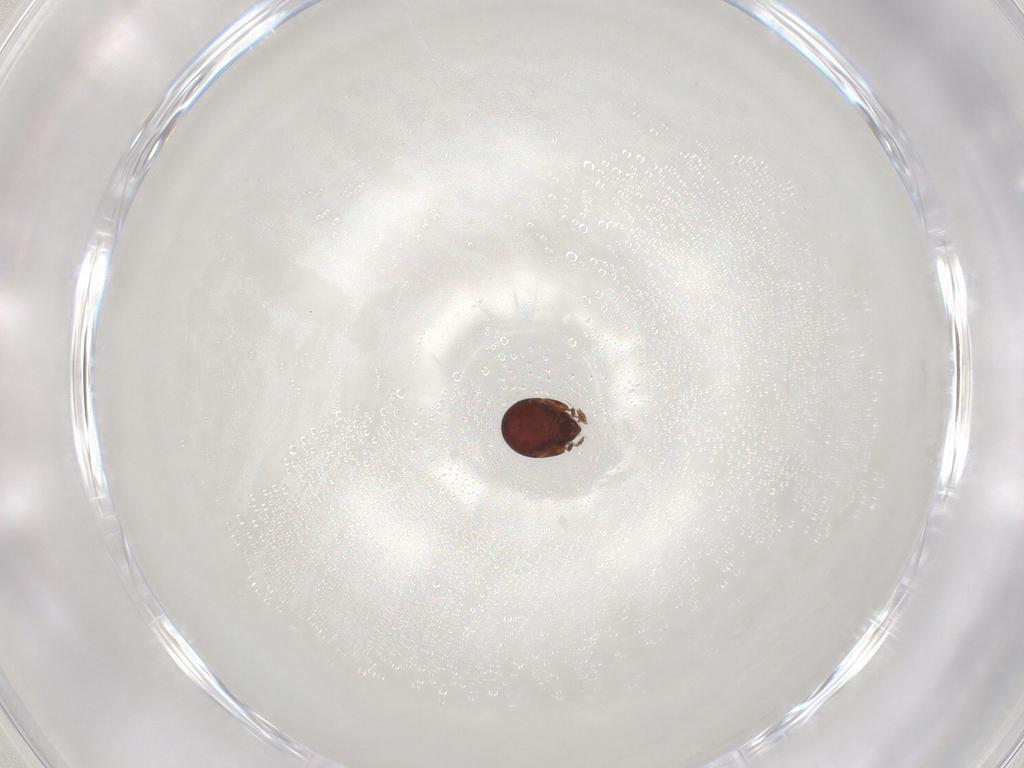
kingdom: Animalia
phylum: Arthropoda
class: Arachnida
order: Sarcoptiformes
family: Humerobatidae
